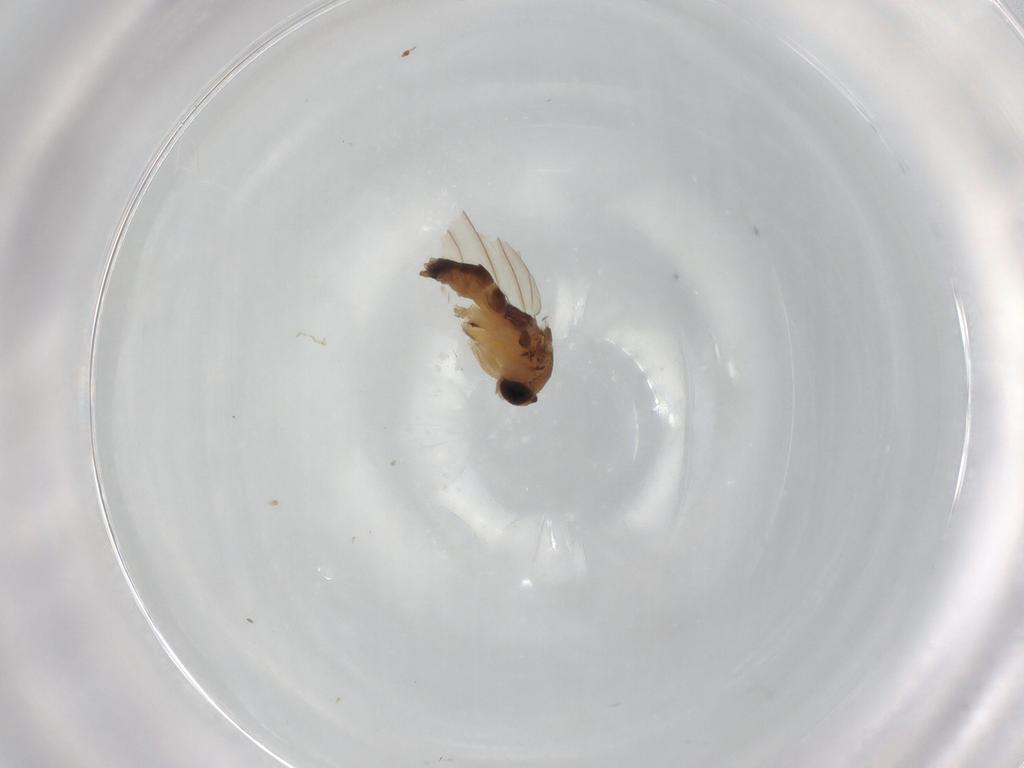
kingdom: Animalia
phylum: Arthropoda
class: Insecta
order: Diptera
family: Phoridae
